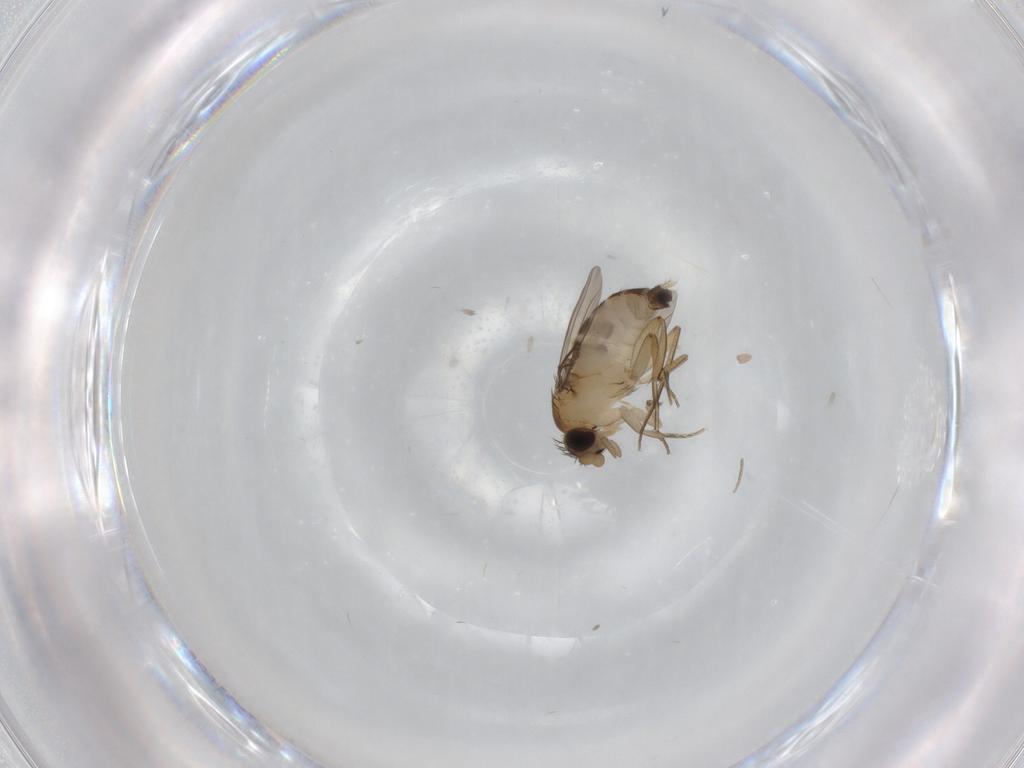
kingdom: Animalia
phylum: Arthropoda
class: Insecta
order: Diptera
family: Phoridae
